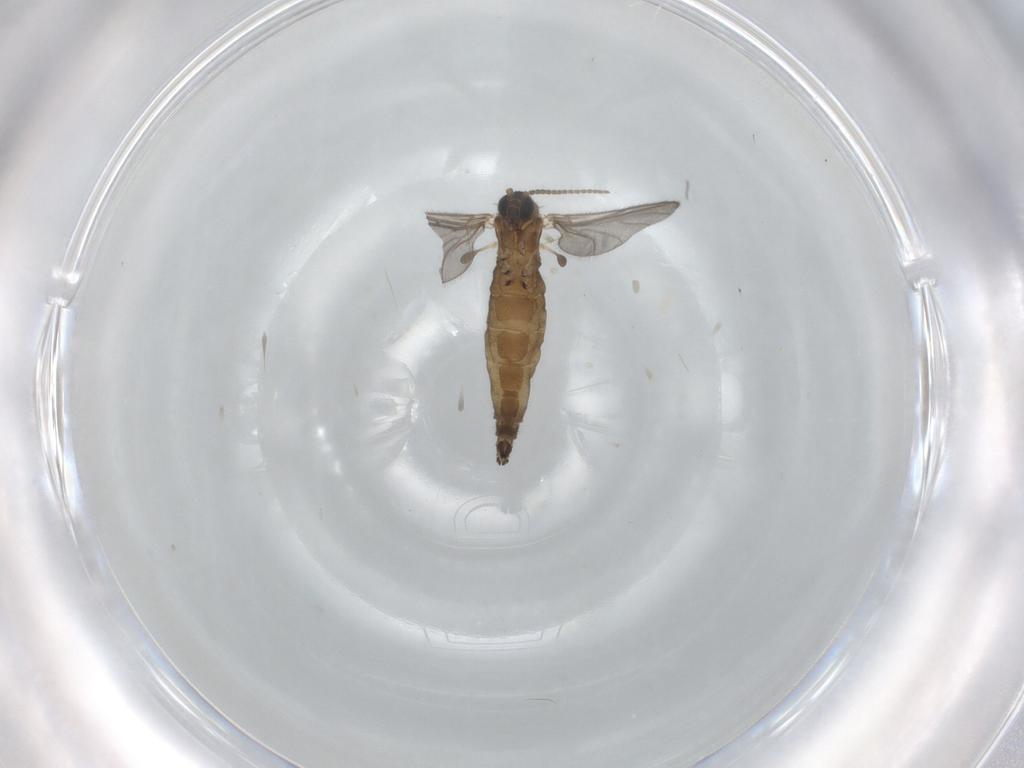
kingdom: Animalia
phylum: Arthropoda
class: Insecta
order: Diptera
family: Sciaridae
